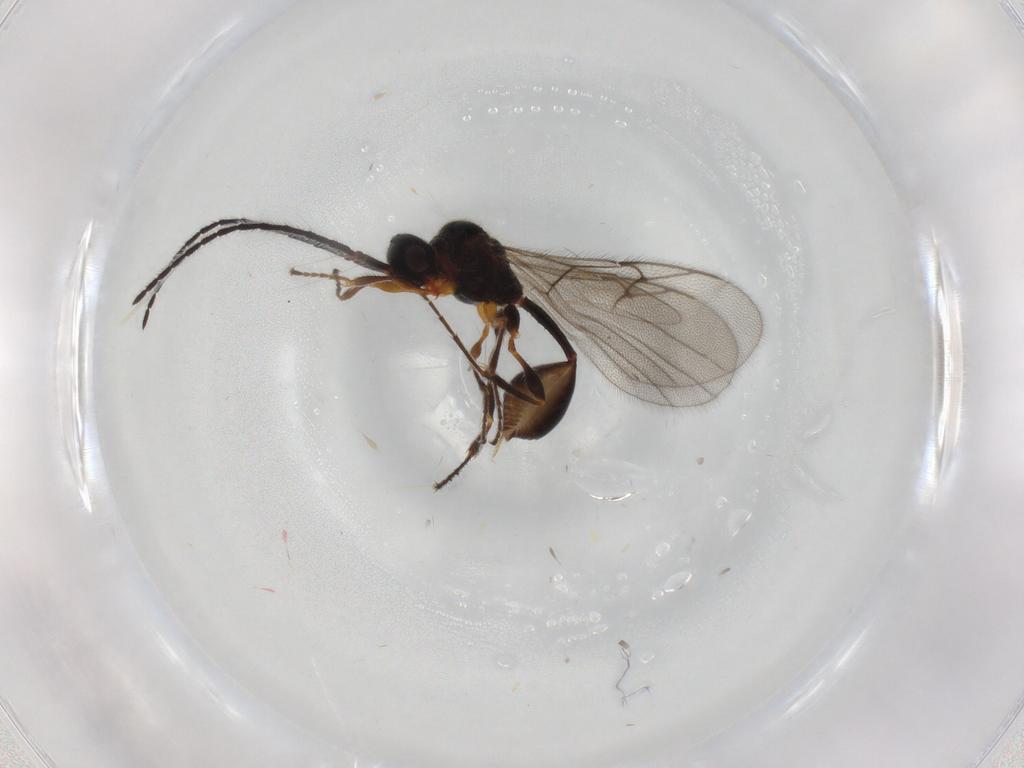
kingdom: Animalia
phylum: Arthropoda
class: Insecta
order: Hymenoptera
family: Diapriidae
